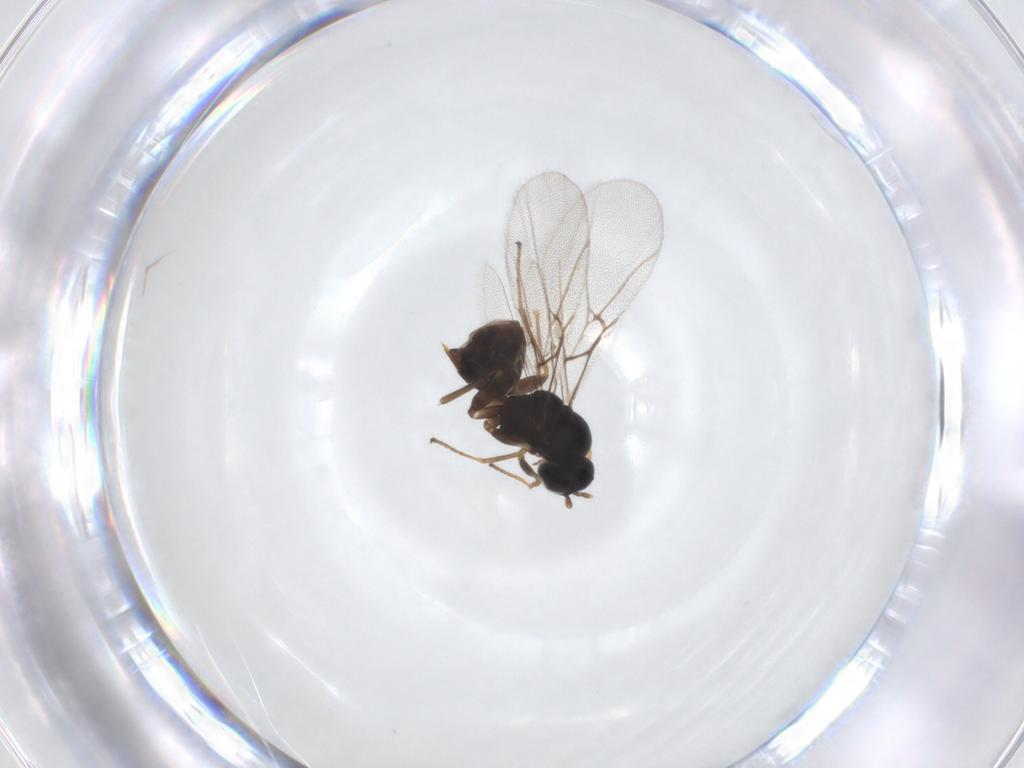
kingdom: Animalia
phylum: Arthropoda
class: Insecta
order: Hymenoptera
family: Cynipidae
